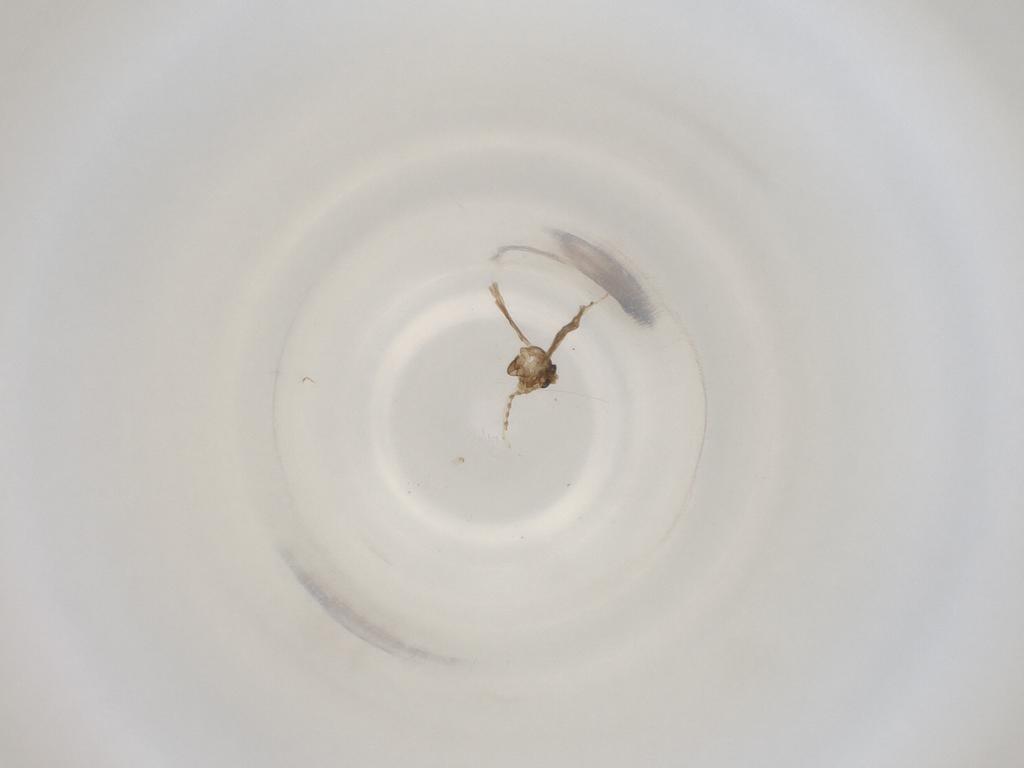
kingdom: Animalia
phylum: Arthropoda
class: Insecta
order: Diptera
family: Cecidomyiidae
